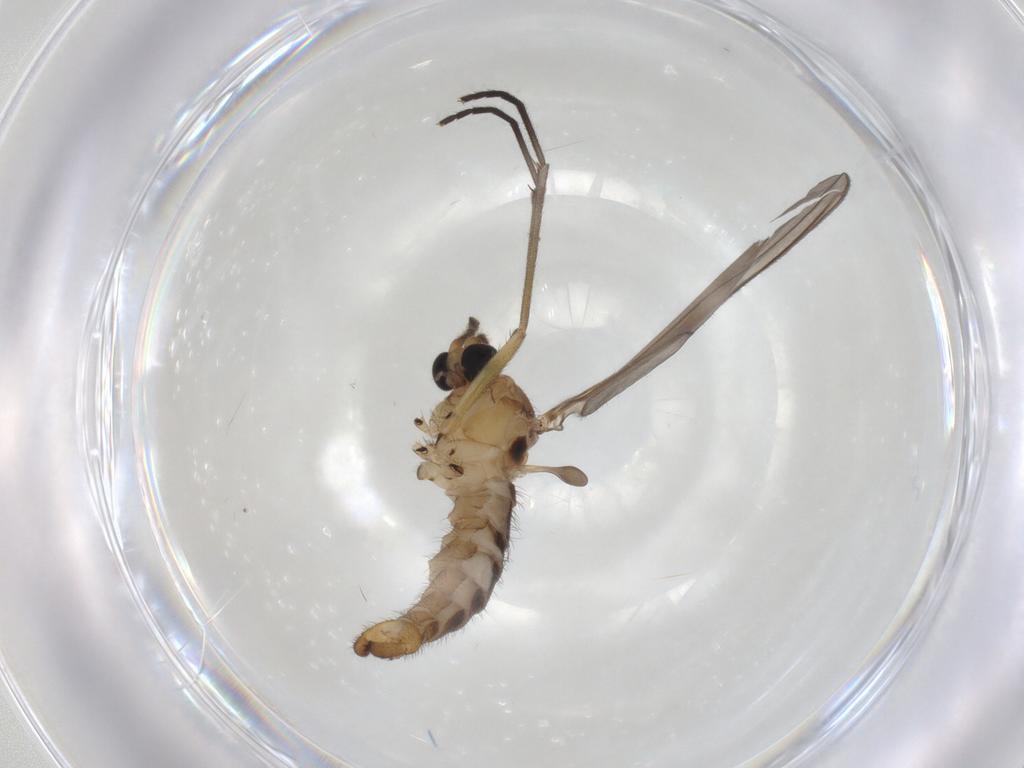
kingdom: Animalia
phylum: Arthropoda
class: Insecta
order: Diptera
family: Sciaridae
